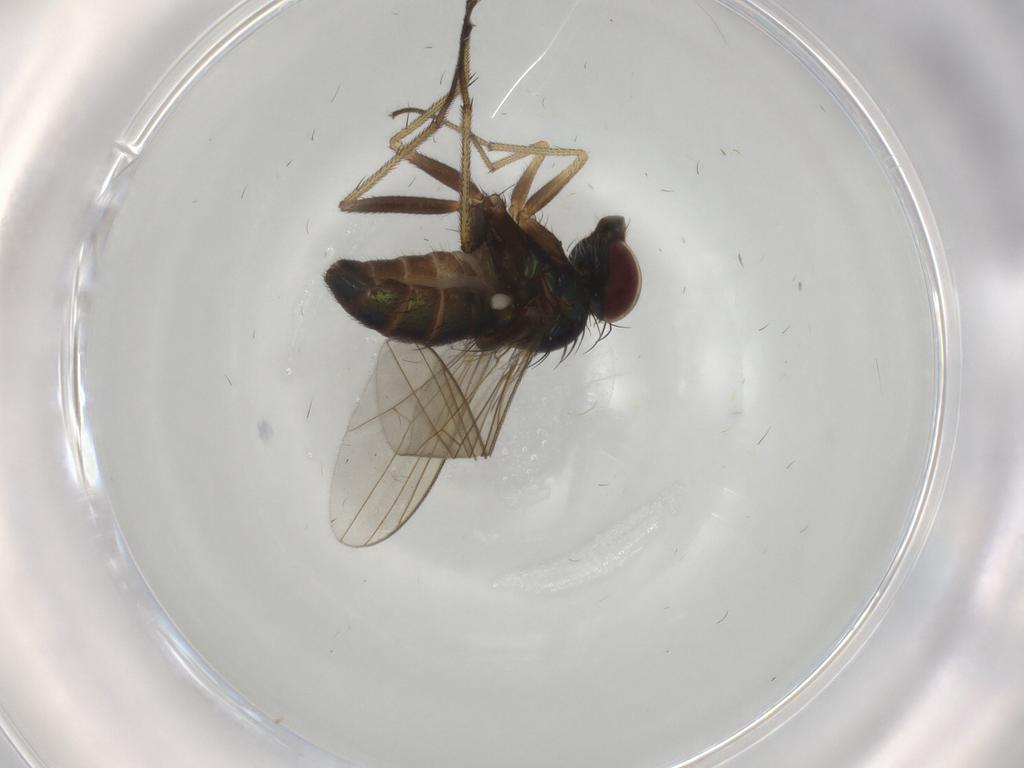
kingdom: Animalia
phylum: Arthropoda
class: Insecta
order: Diptera
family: Dolichopodidae
